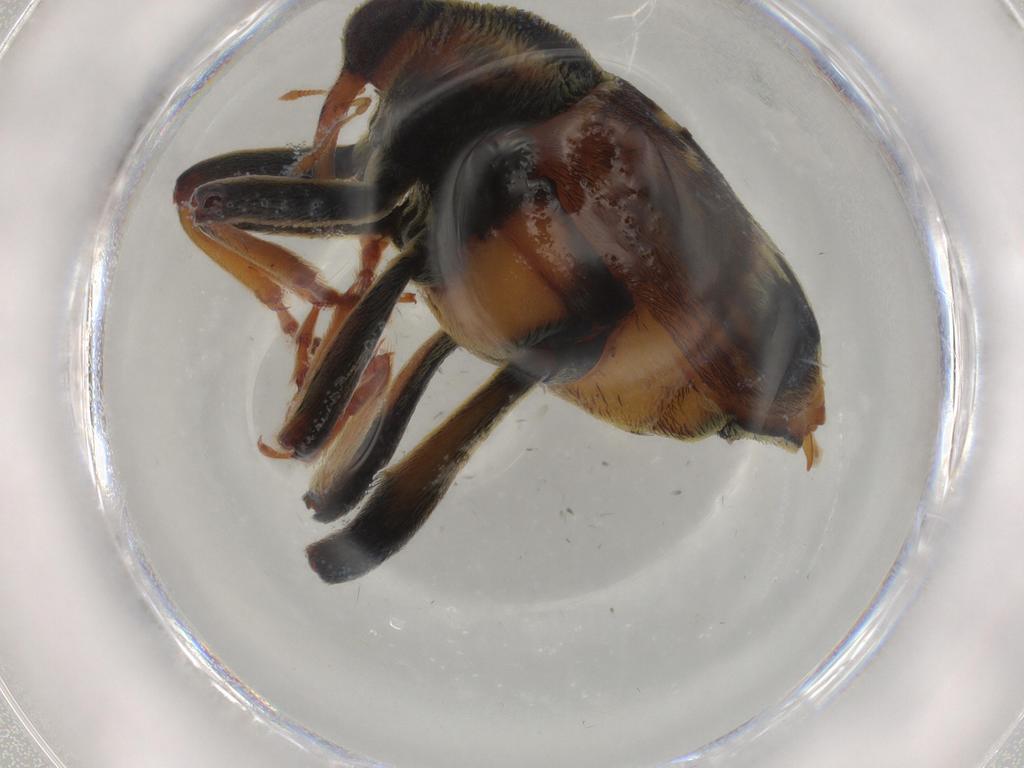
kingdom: Animalia
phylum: Arthropoda
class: Insecta
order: Coleoptera
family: Curculionidae
